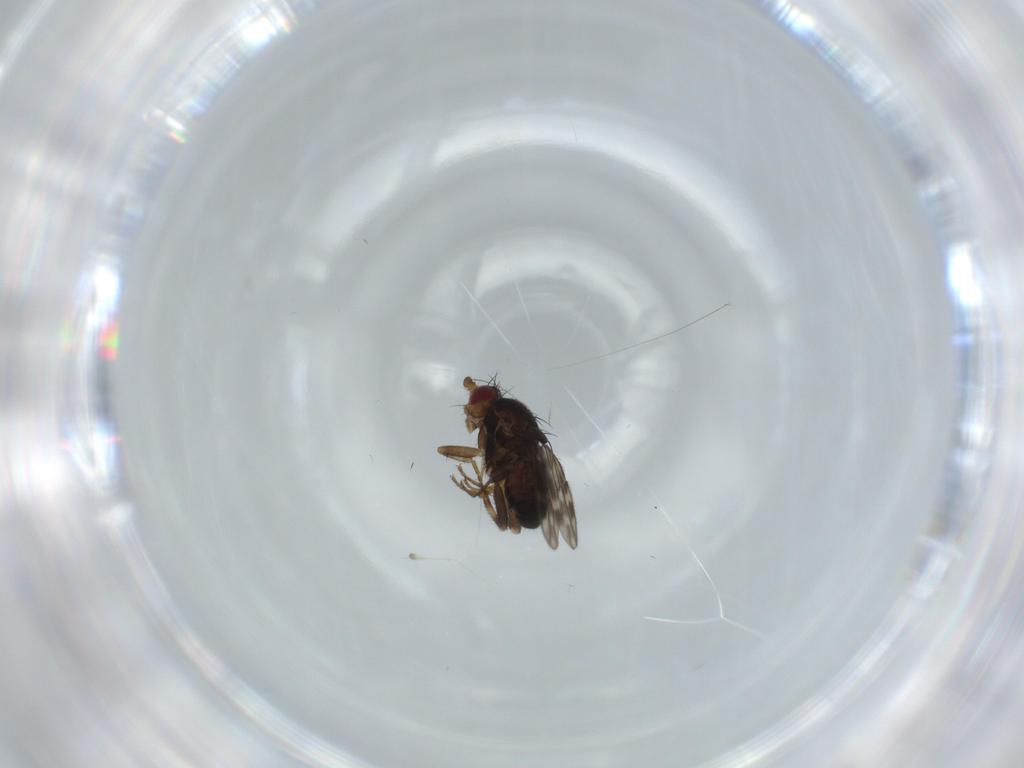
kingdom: Animalia
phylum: Arthropoda
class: Insecta
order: Diptera
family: Sphaeroceridae
